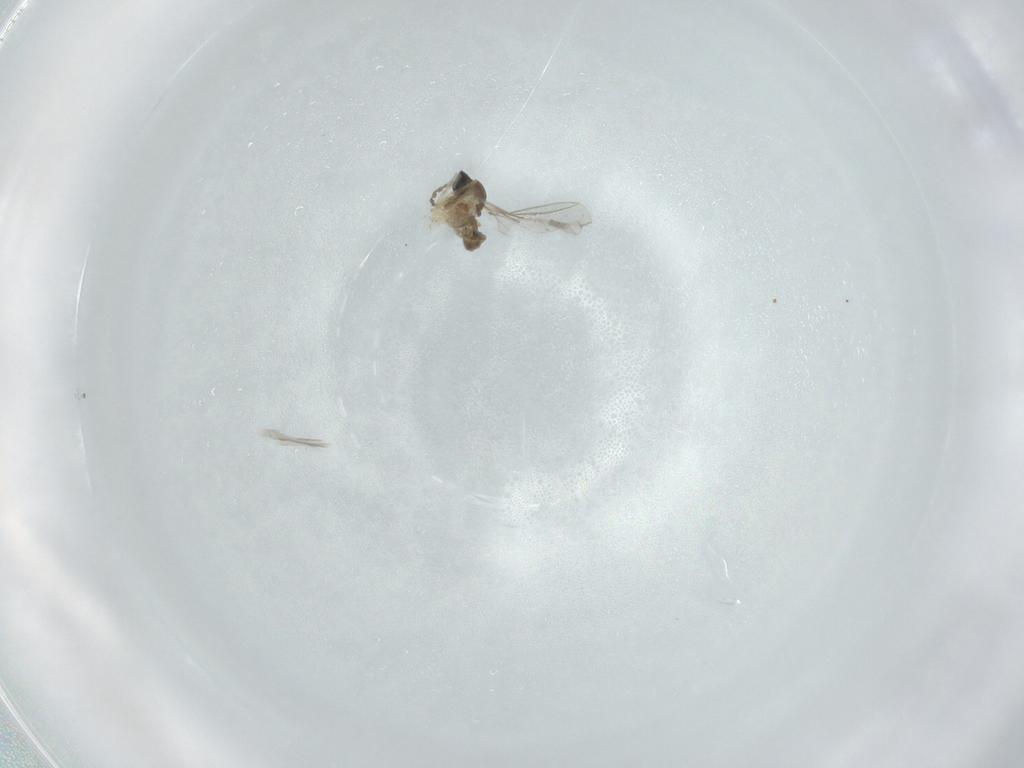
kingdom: Animalia
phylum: Arthropoda
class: Insecta
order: Diptera
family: Cecidomyiidae
